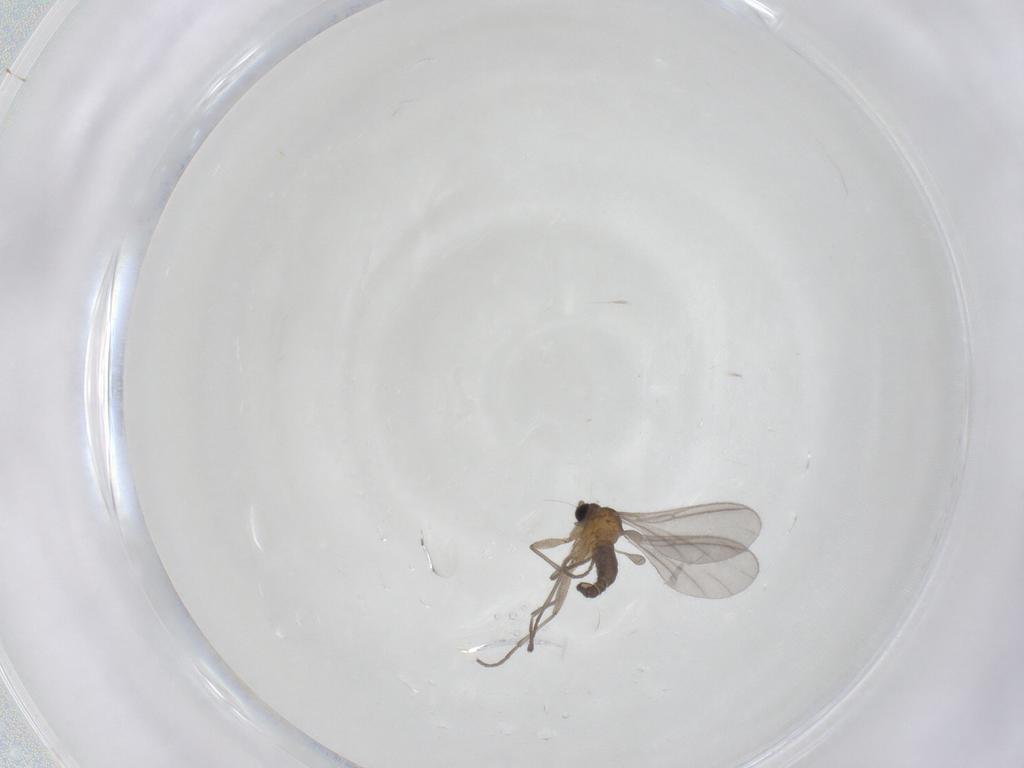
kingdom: Animalia
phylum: Arthropoda
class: Insecta
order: Diptera
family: Sciaridae
